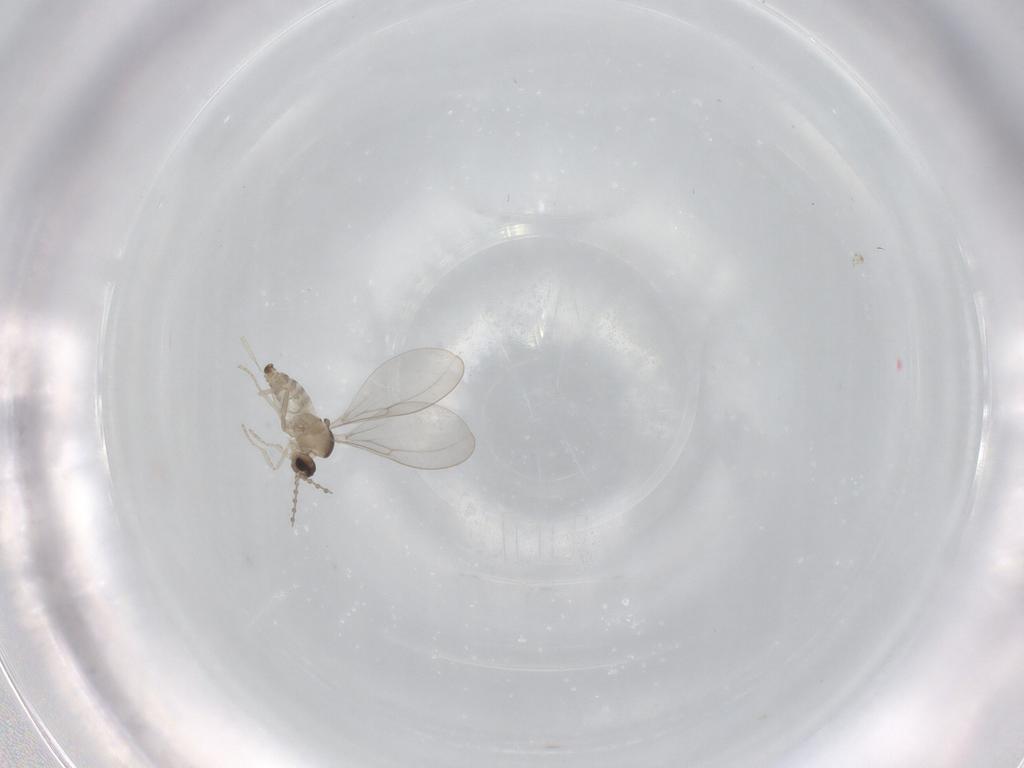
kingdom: Animalia
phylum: Arthropoda
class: Insecta
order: Diptera
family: Cecidomyiidae
